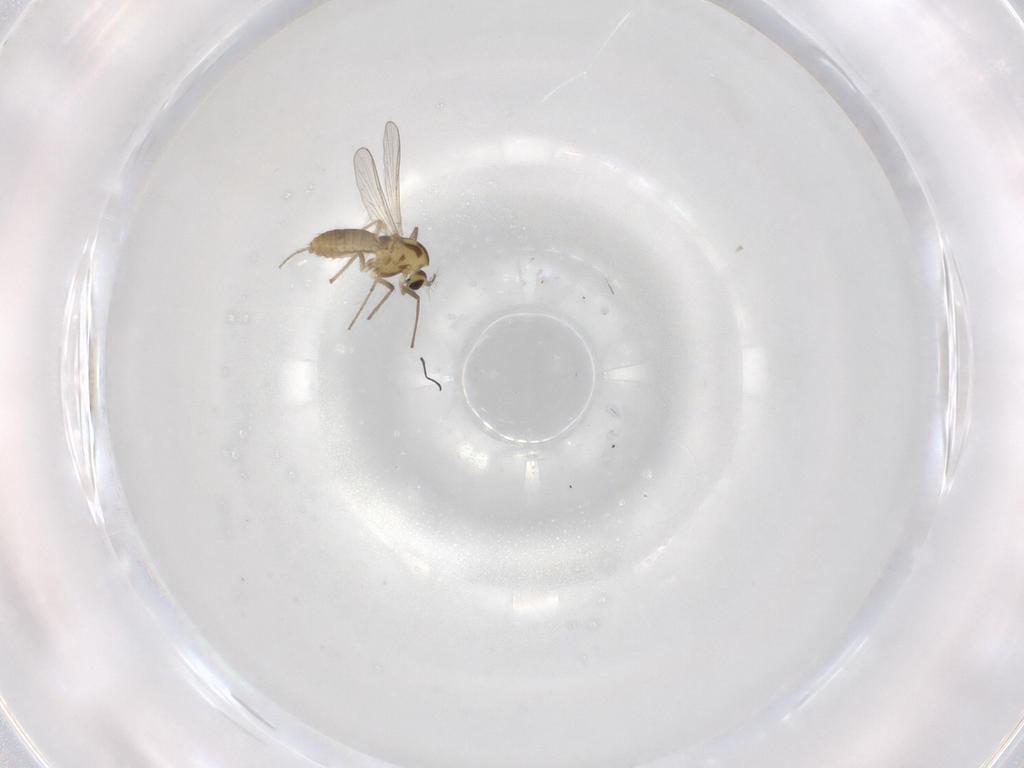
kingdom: Animalia
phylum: Arthropoda
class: Insecta
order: Diptera
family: Chironomidae
